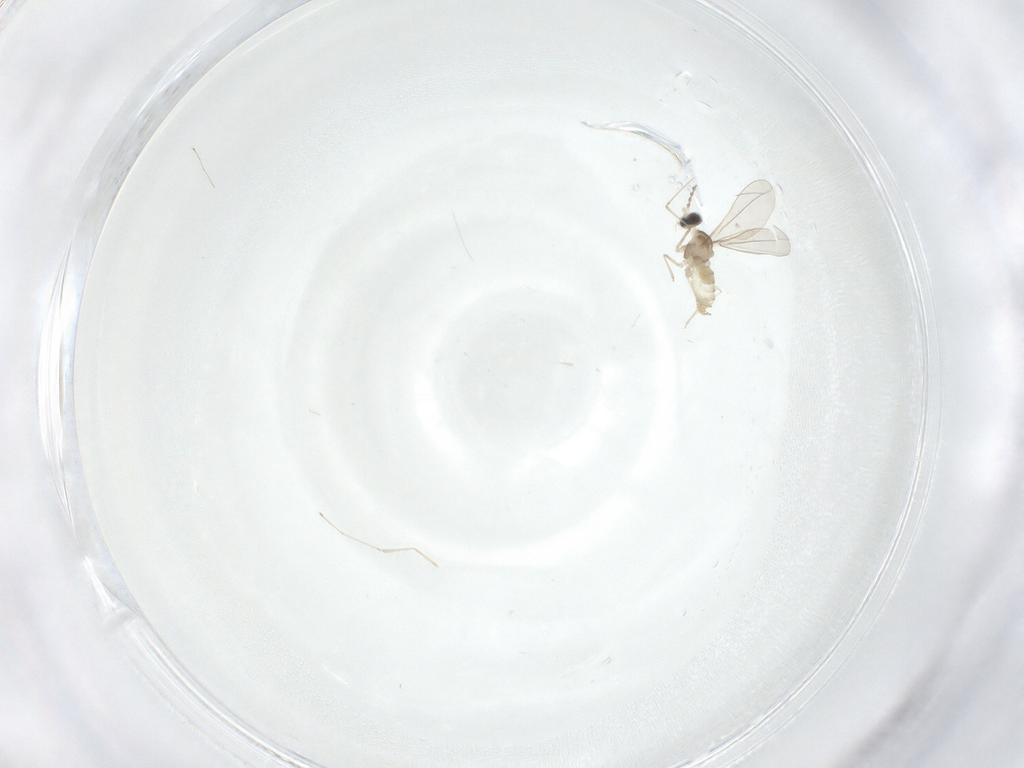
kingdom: Animalia
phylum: Arthropoda
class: Insecta
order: Diptera
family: Cecidomyiidae
